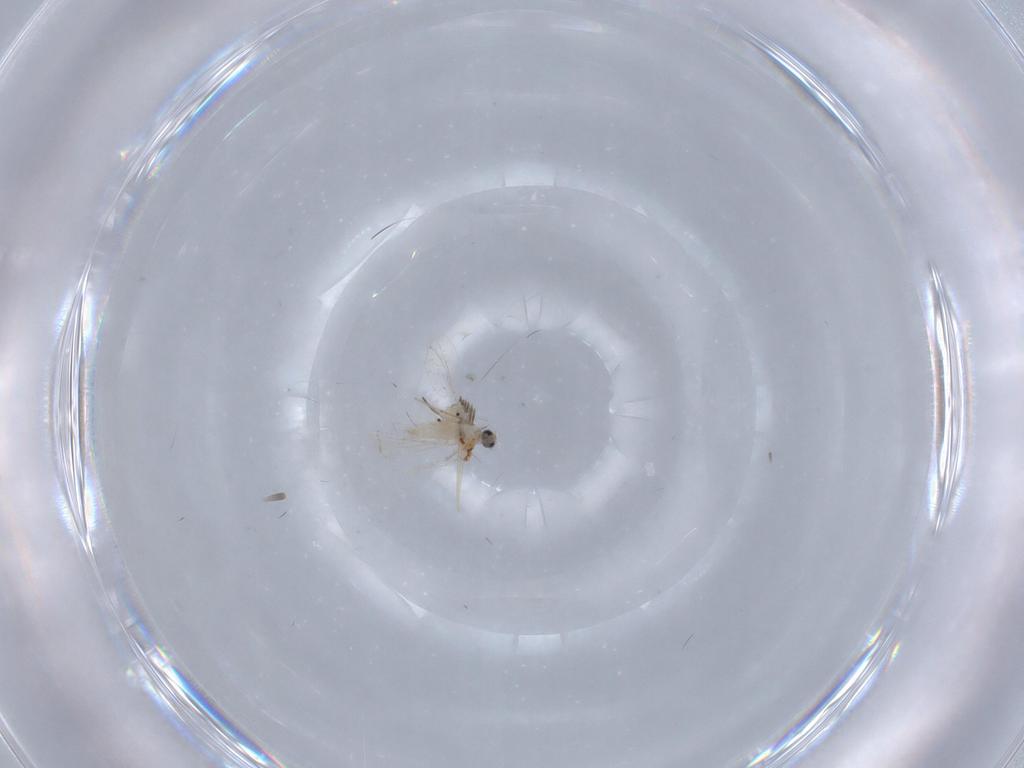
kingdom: Animalia
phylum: Arthropoda
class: Insecta
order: Diptera
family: Cecidomyiidae
